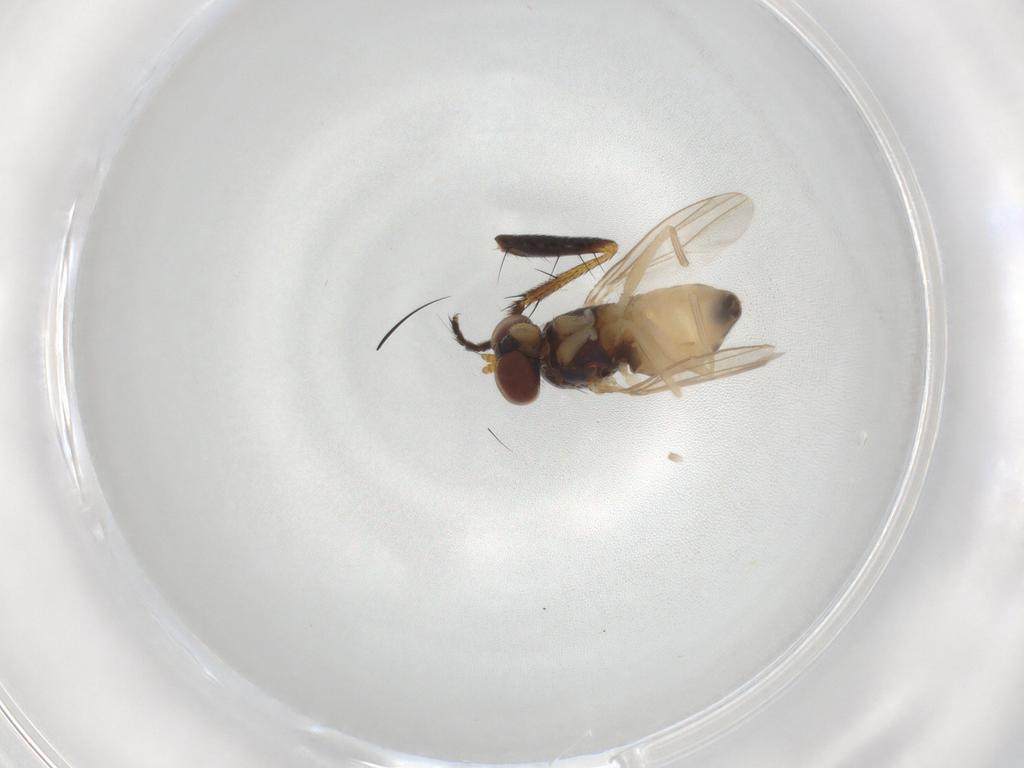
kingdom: Animalia
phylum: Arthropoda
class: Insecta
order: Diptera
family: Dolichopodidae
